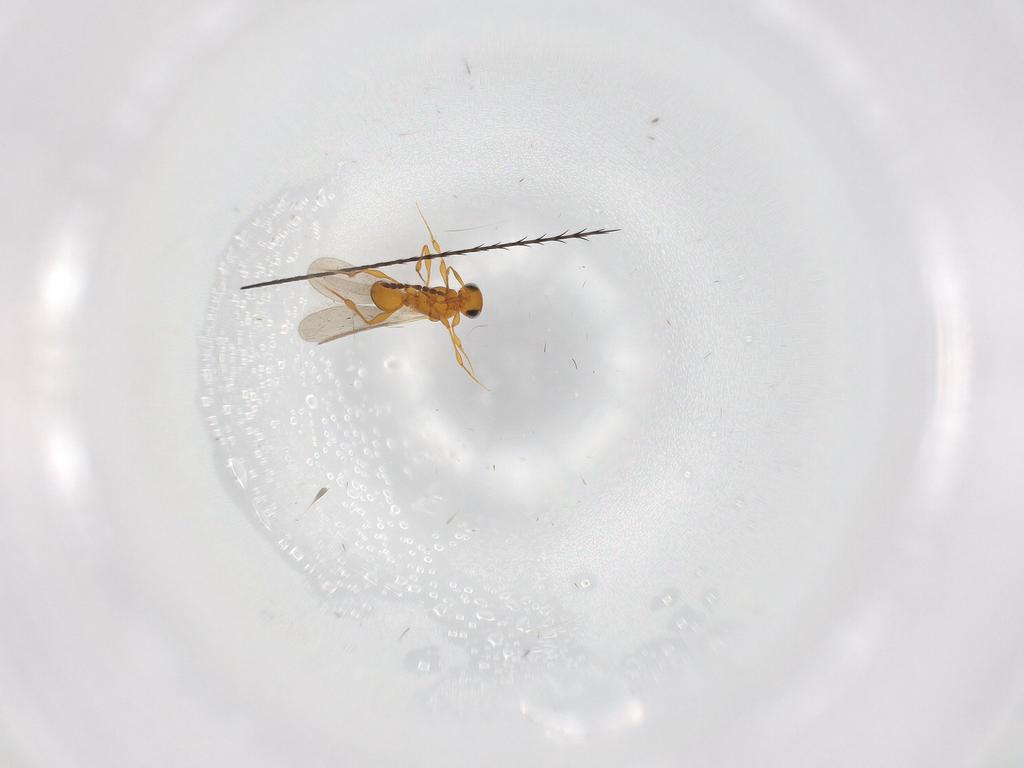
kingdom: Animalia
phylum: Arthropoda
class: Insecta
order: Hymenoptera
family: Platygastridae
